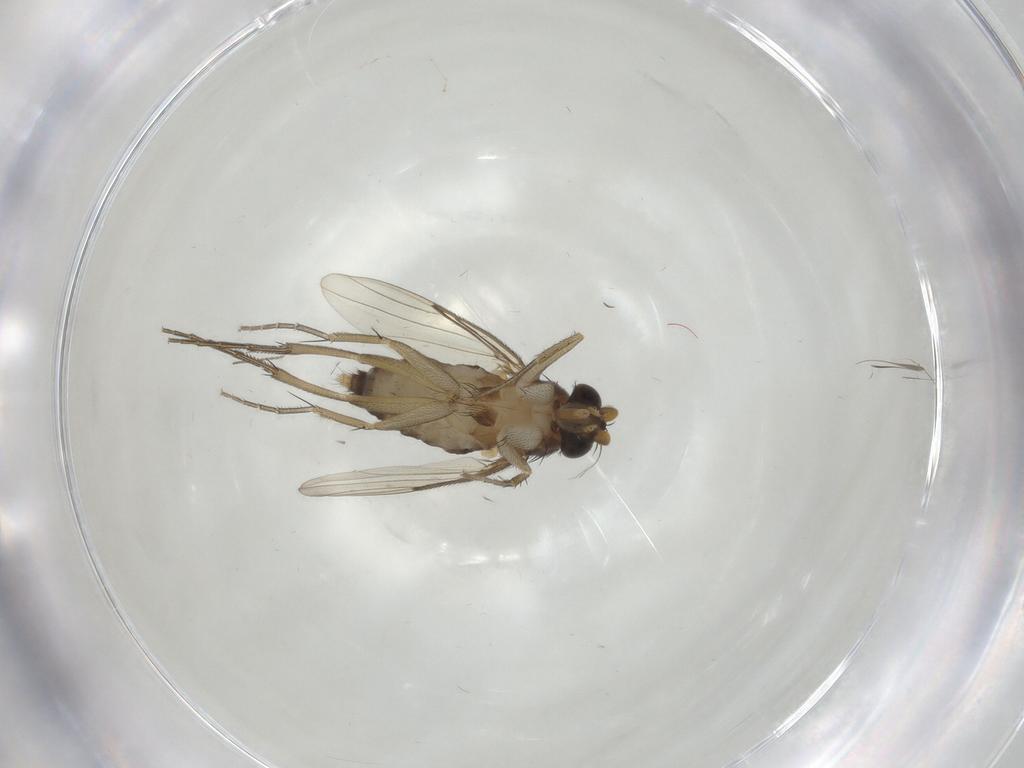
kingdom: Animalia
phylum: Arthropoda
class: Insecta
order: Diptera
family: Phoridae
